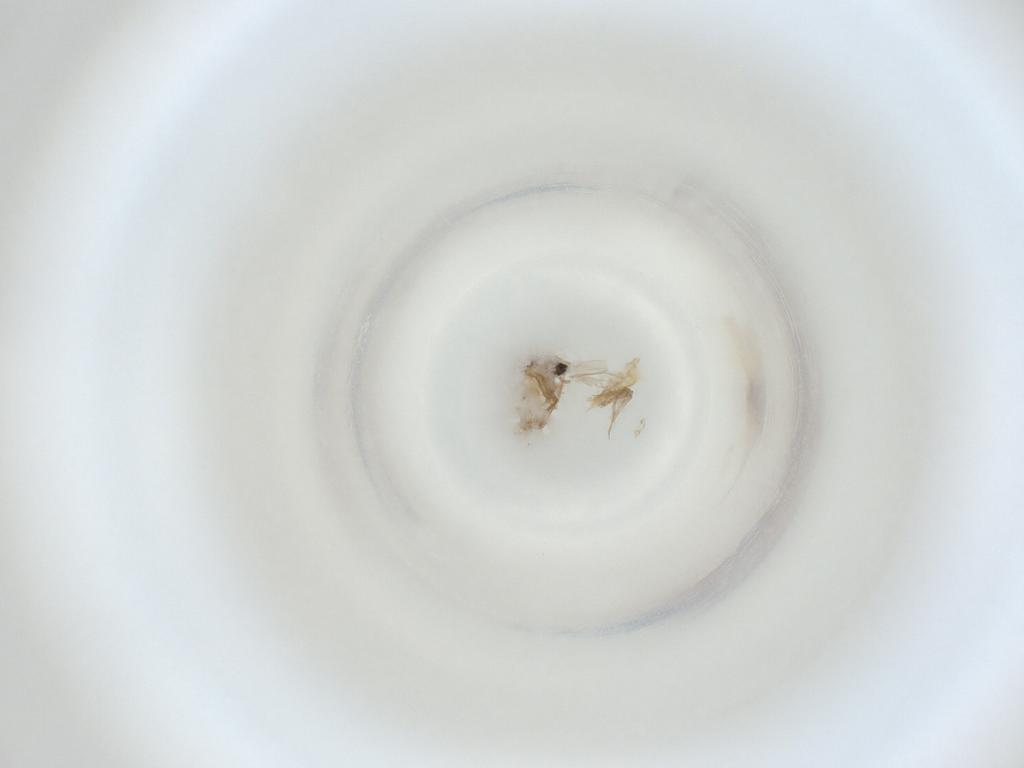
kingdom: Animalia
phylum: Arthropoda
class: Insecta
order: Diptera
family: Cecidomyiidae
